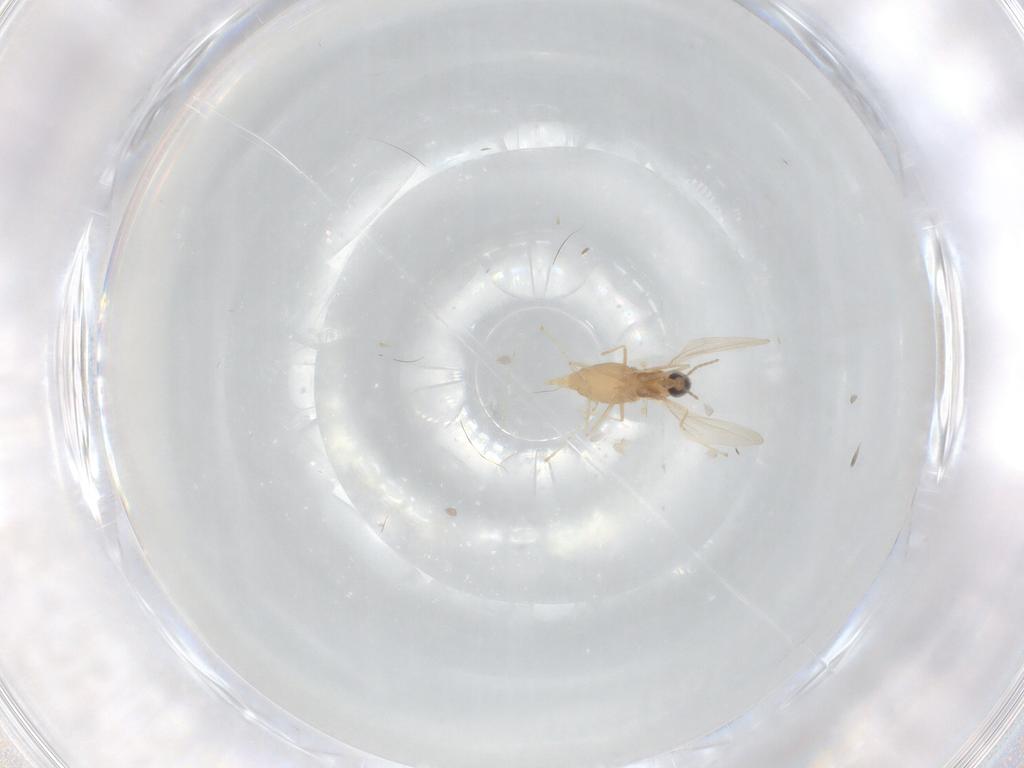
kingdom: Animalia
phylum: Arthropoda
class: Insecta
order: Diptera
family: Cecidomyiidae
